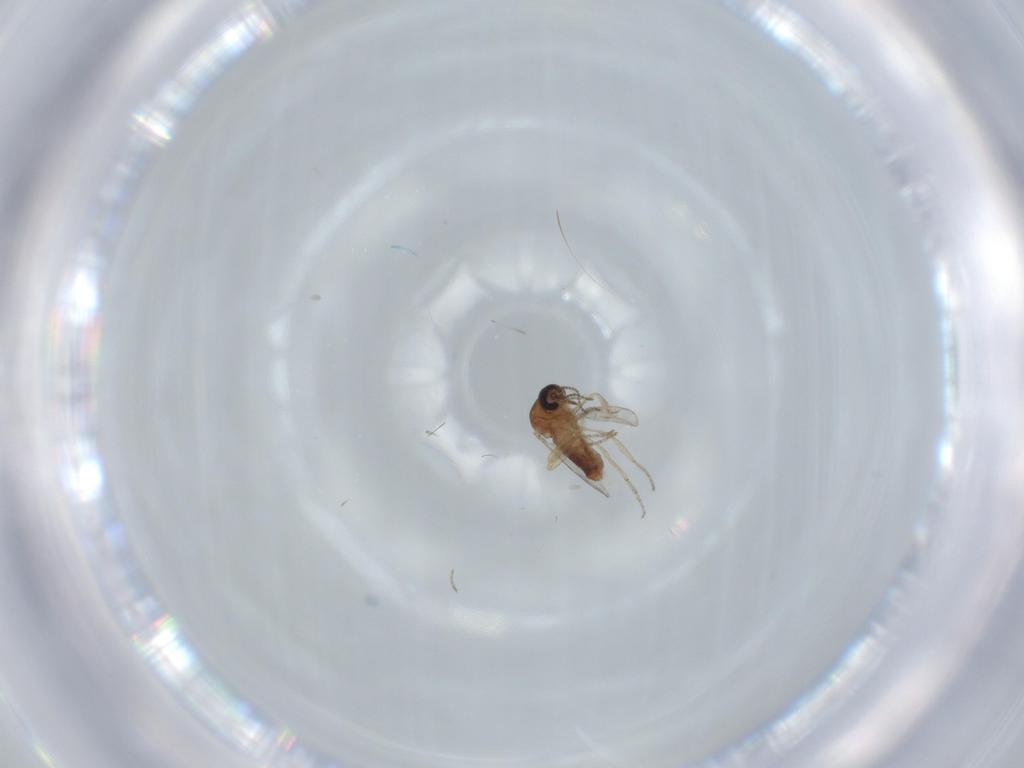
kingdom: Animalia
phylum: Arthropoda
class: Insecta
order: Diptera
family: Ceratopogonidae
